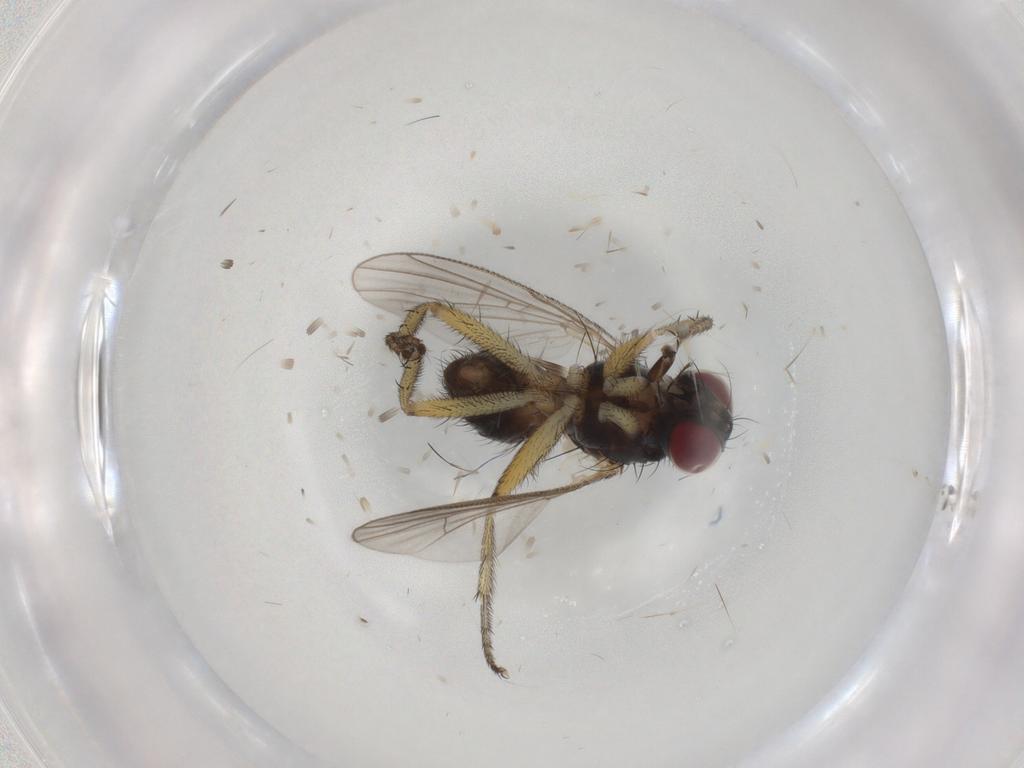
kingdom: Animalia
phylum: Arthropoda
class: Insecta
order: Diptera
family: Muscidae
